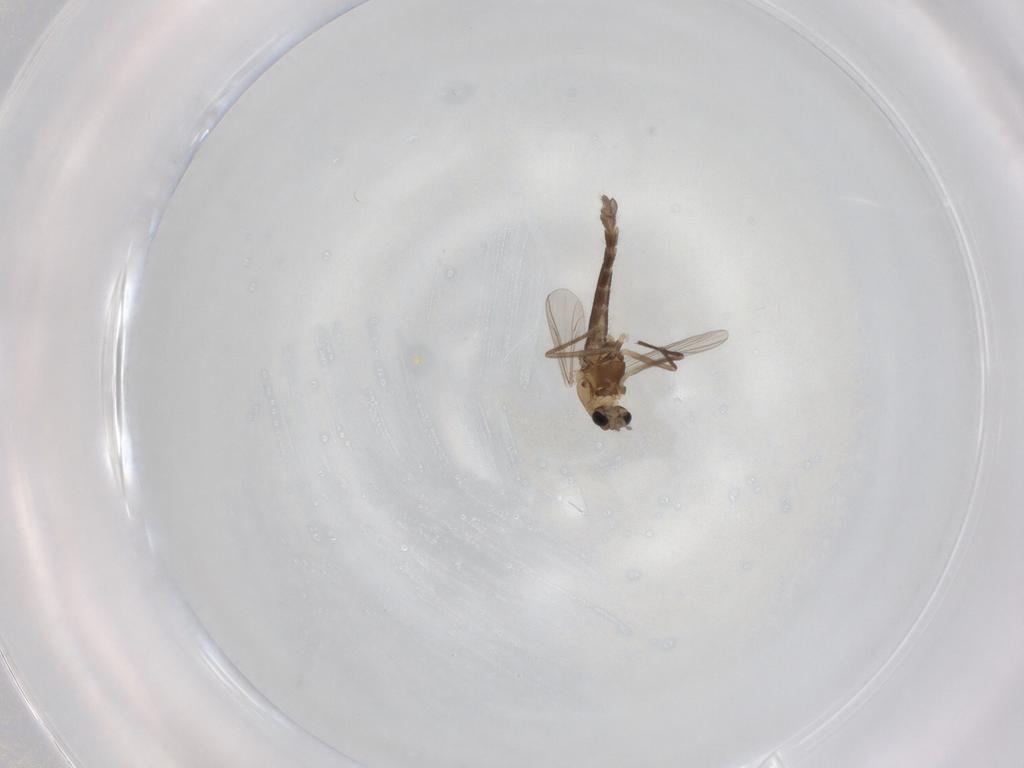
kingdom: Animalia
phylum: Arthropoda
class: Insecta
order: Diptera
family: Chironomidae
